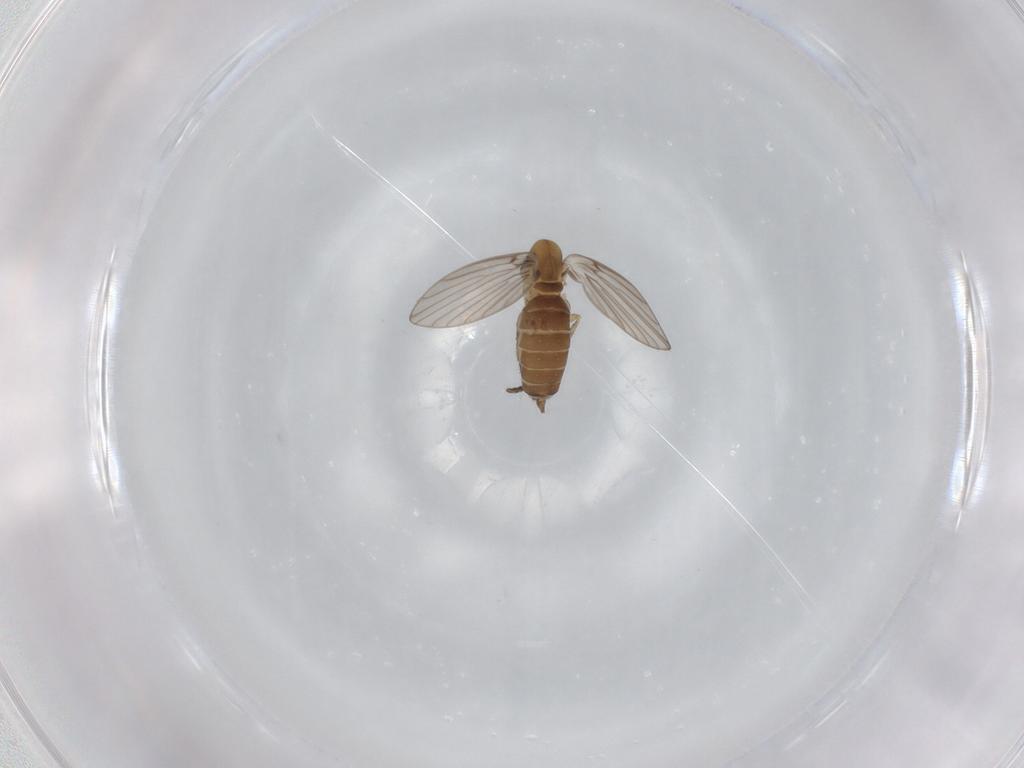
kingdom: Animalia
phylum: Arthropoda
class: Insecta
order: Diptera
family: Psychodidae
